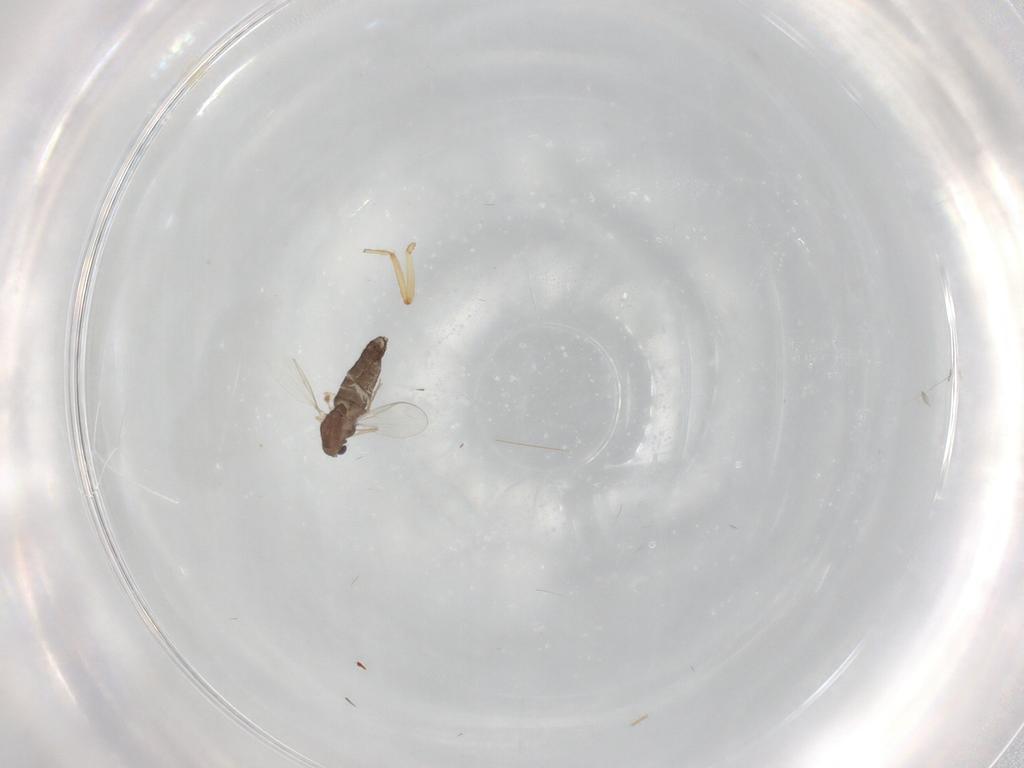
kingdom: Animalia
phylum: Arthropoda
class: Insecta
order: Diptera
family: Chironomidae
